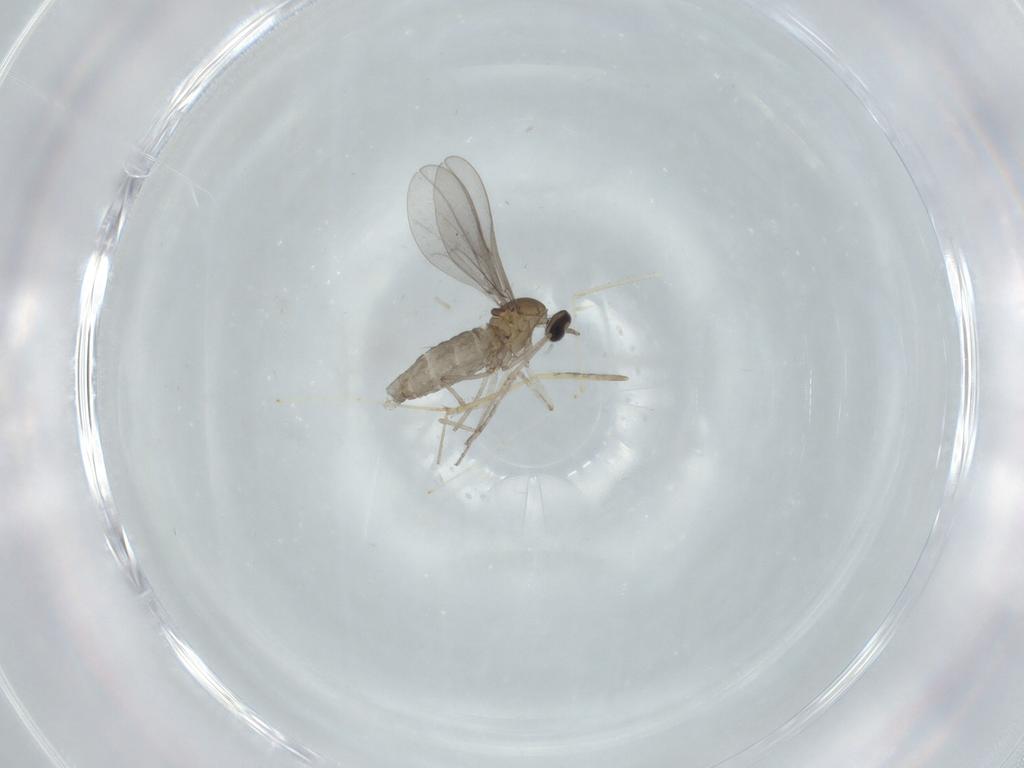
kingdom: Animalia
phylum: Arthropoda
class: Insecta
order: Diptera
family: Cecidomyiidae
